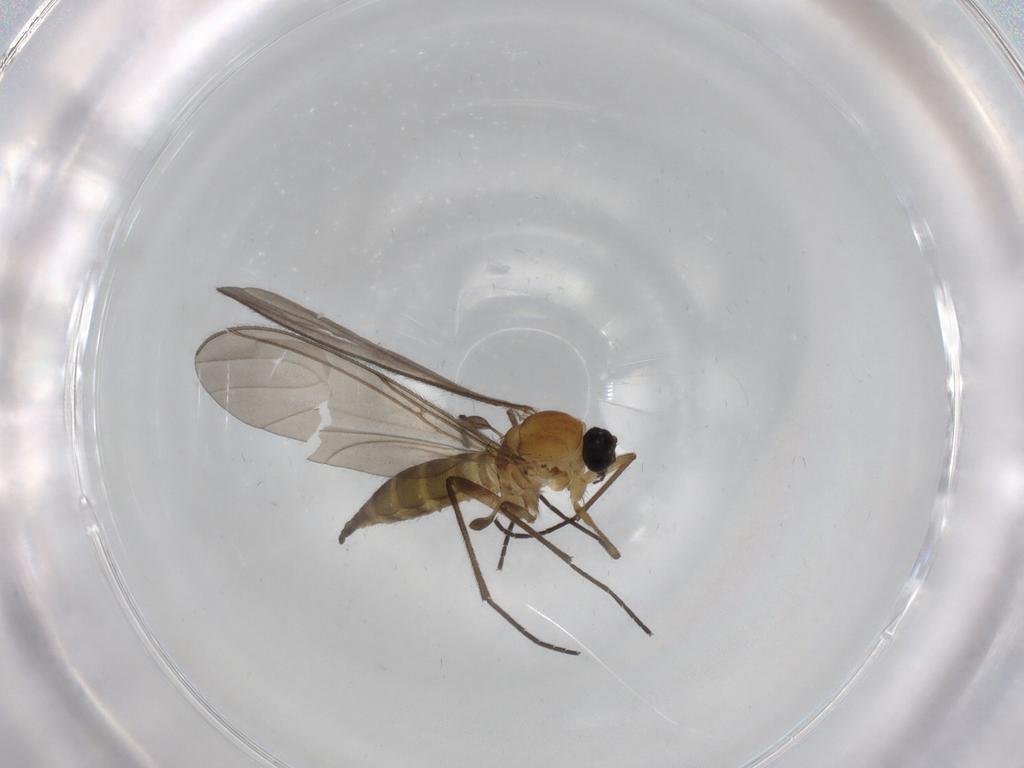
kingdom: Animalia
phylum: Arthropoda
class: Insecta
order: Diptera
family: Sciaridae
